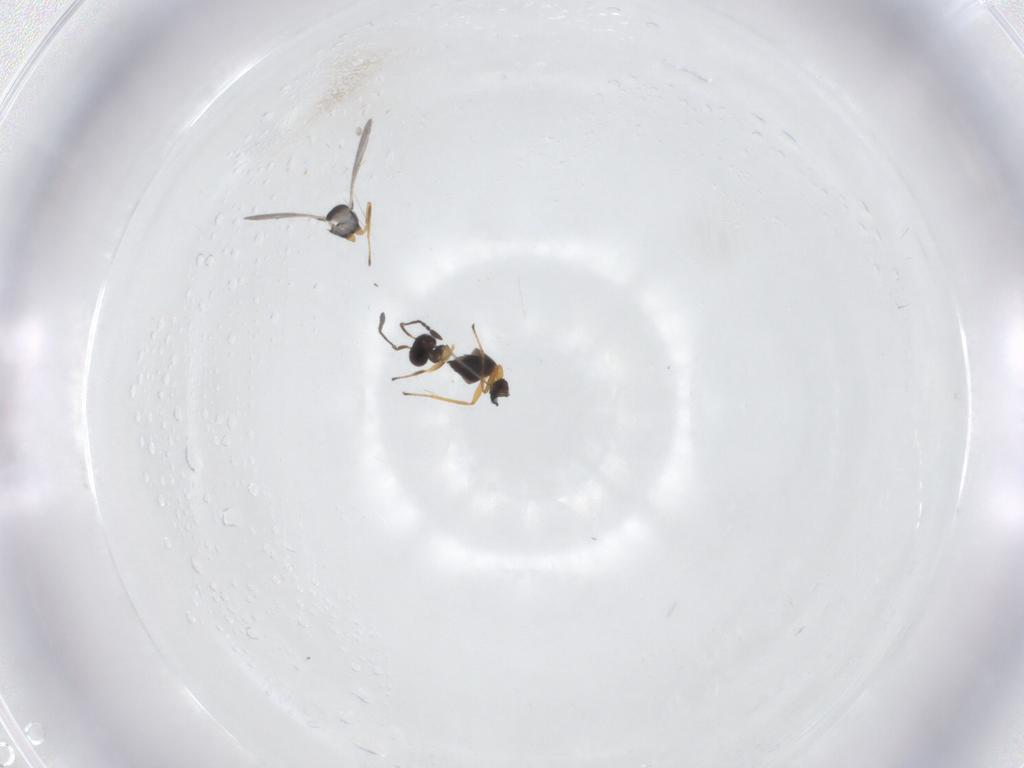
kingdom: Animalia
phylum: Arthropoda
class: Insecta
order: Hymenoptera
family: Mymaridae
